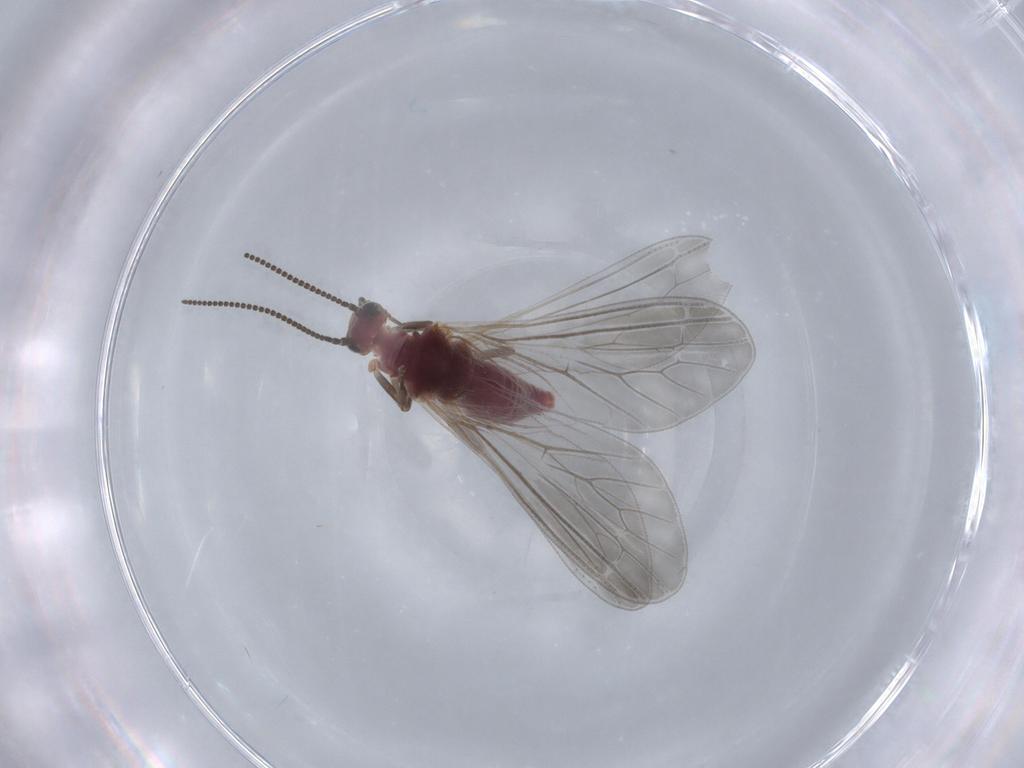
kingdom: Animalia
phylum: Arthropoda
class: Insecta
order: Neuroptera
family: Coniopterygidae
